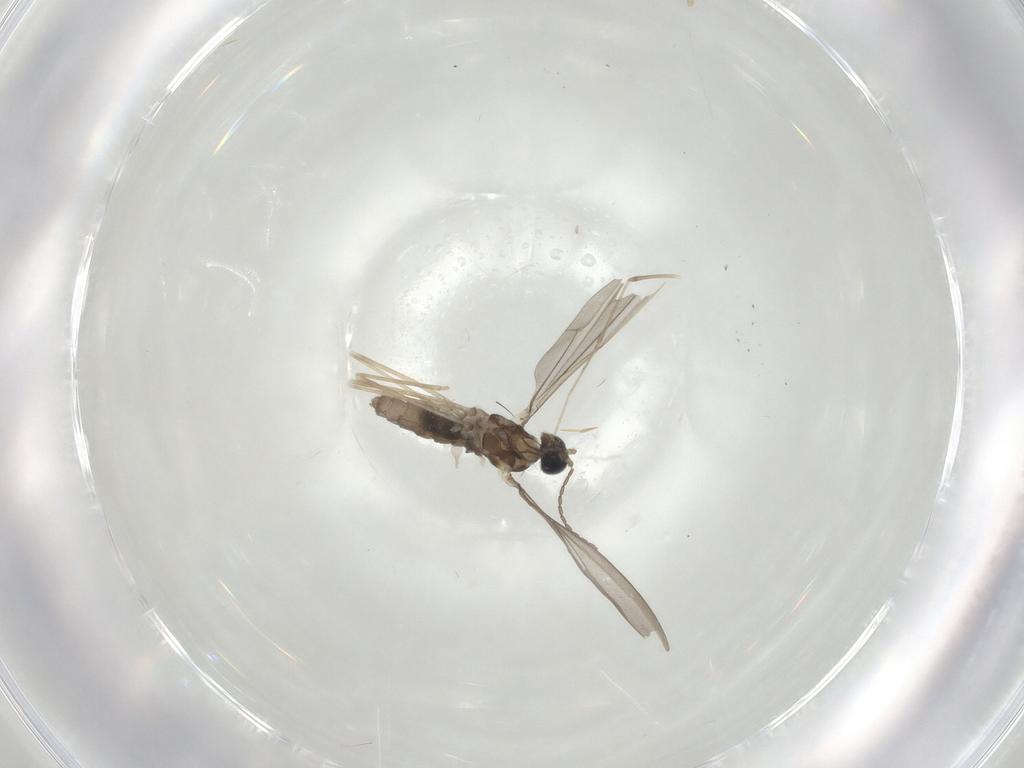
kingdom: Animalia
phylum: Arthropoda
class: Insecta
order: Diptera
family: Cecidomyiidae
